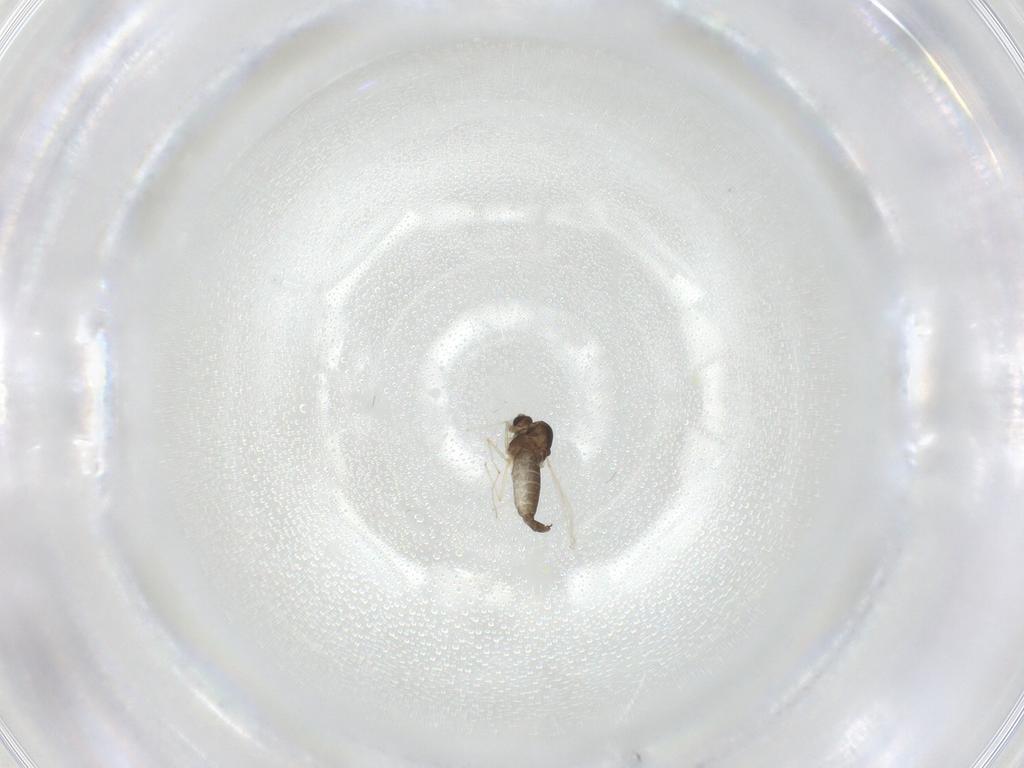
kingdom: Animalia
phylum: Arthropoda
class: Insecta
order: Diptera
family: Chironomidae
